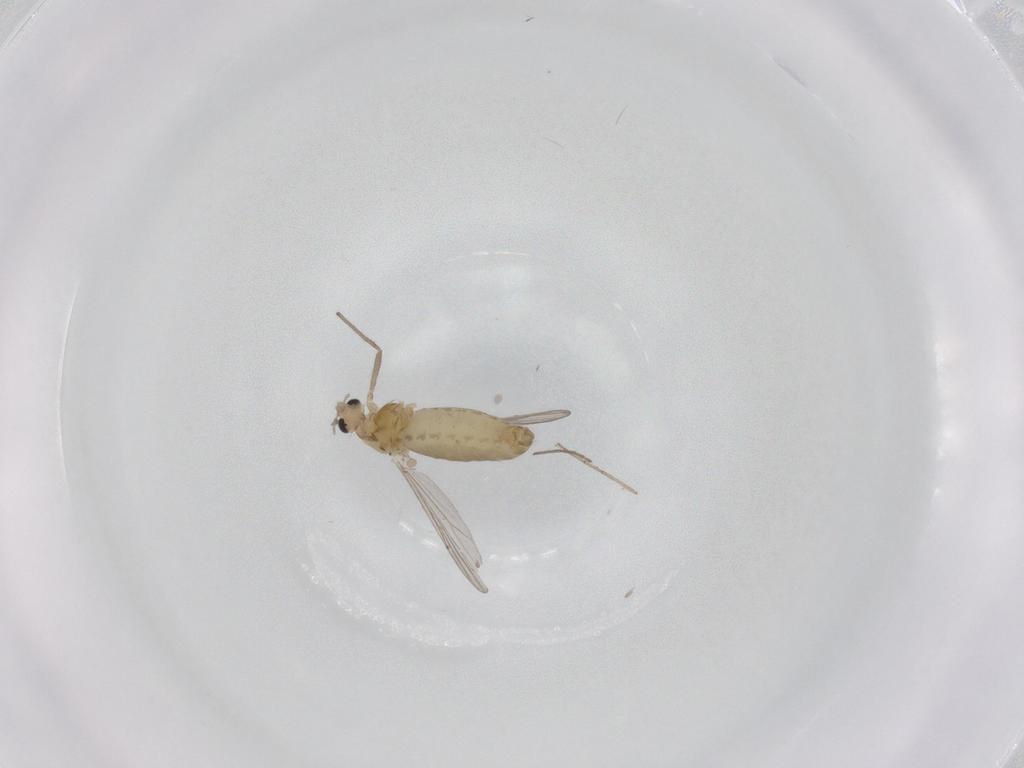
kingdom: Animalia
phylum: Arthropoda
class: Insecta
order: Diptera
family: Chironomidae
